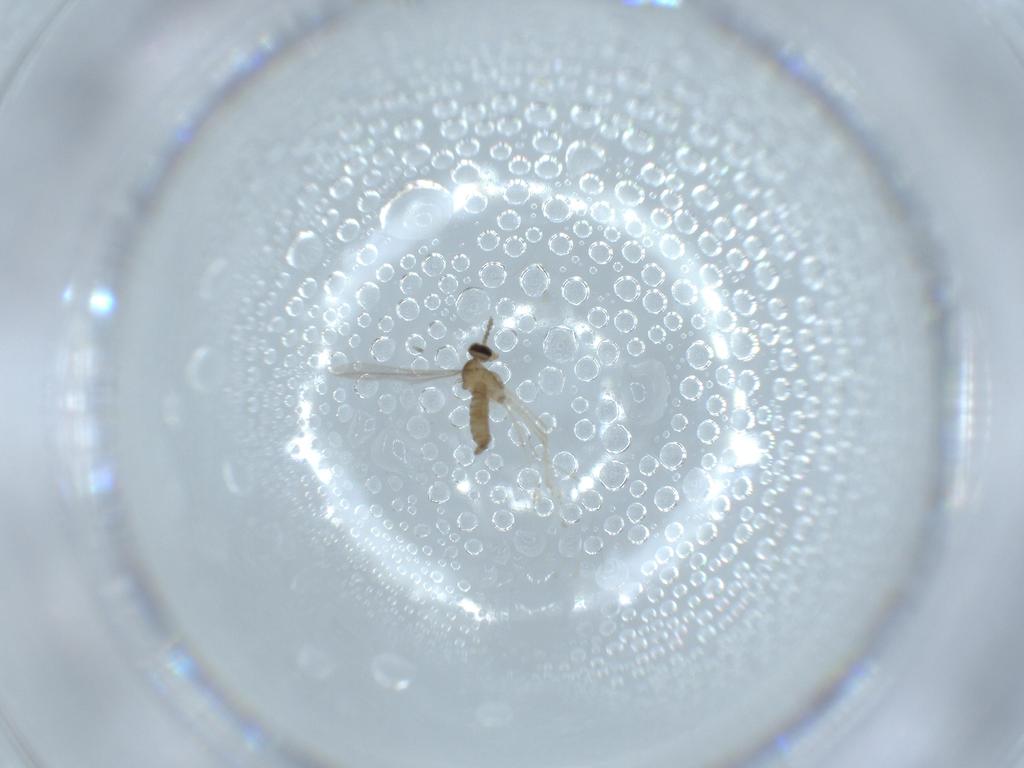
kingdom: Animalia
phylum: Arthropoda
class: Insecta
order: Diptera
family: Cecidomyiidae
